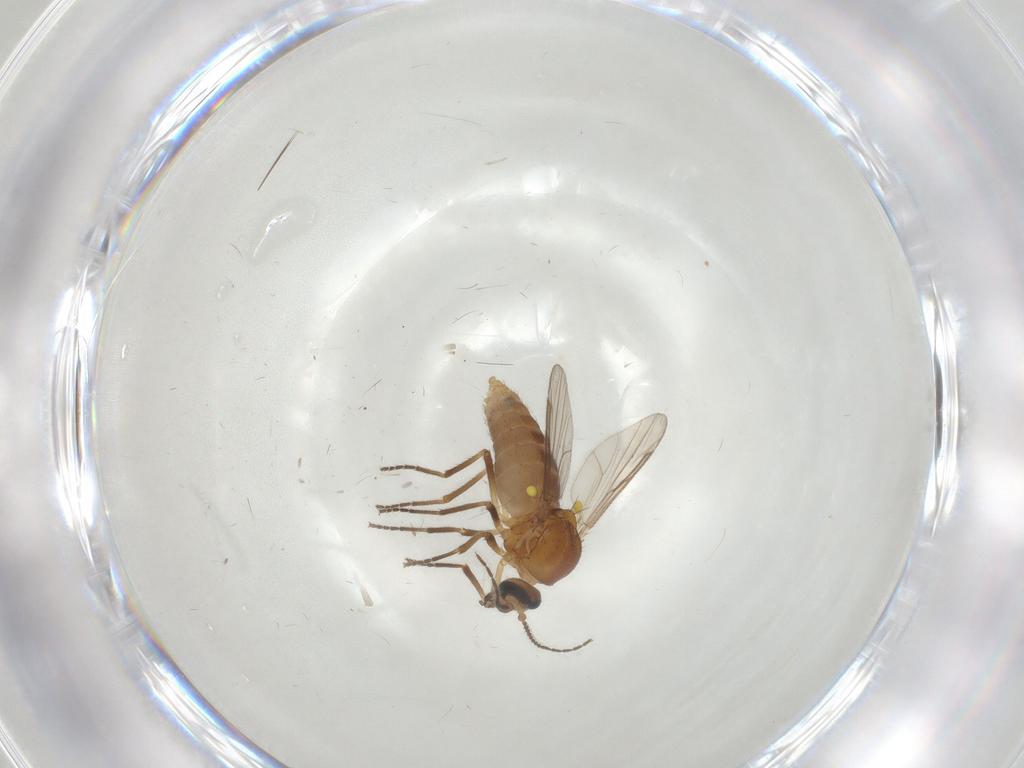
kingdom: Animalia
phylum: Arthropoda
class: Insecta
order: Diptera
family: Ceratopogonidae
